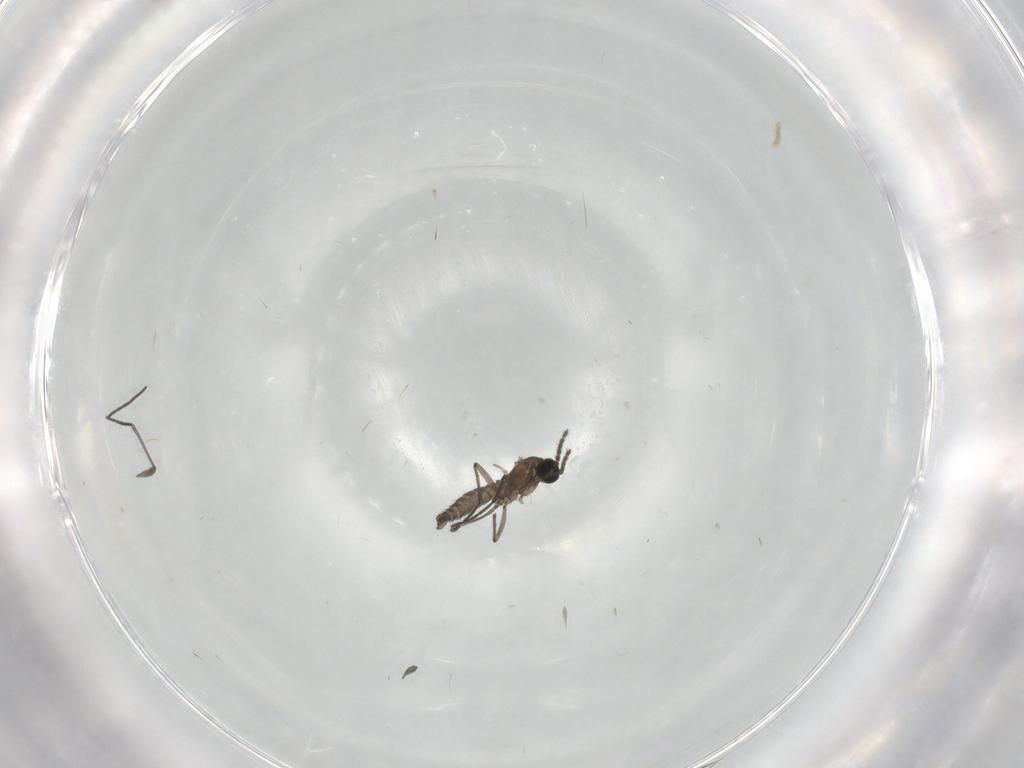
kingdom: Animalia
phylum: Arthropoda
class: Insecta
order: Diptera
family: Sciaridae
